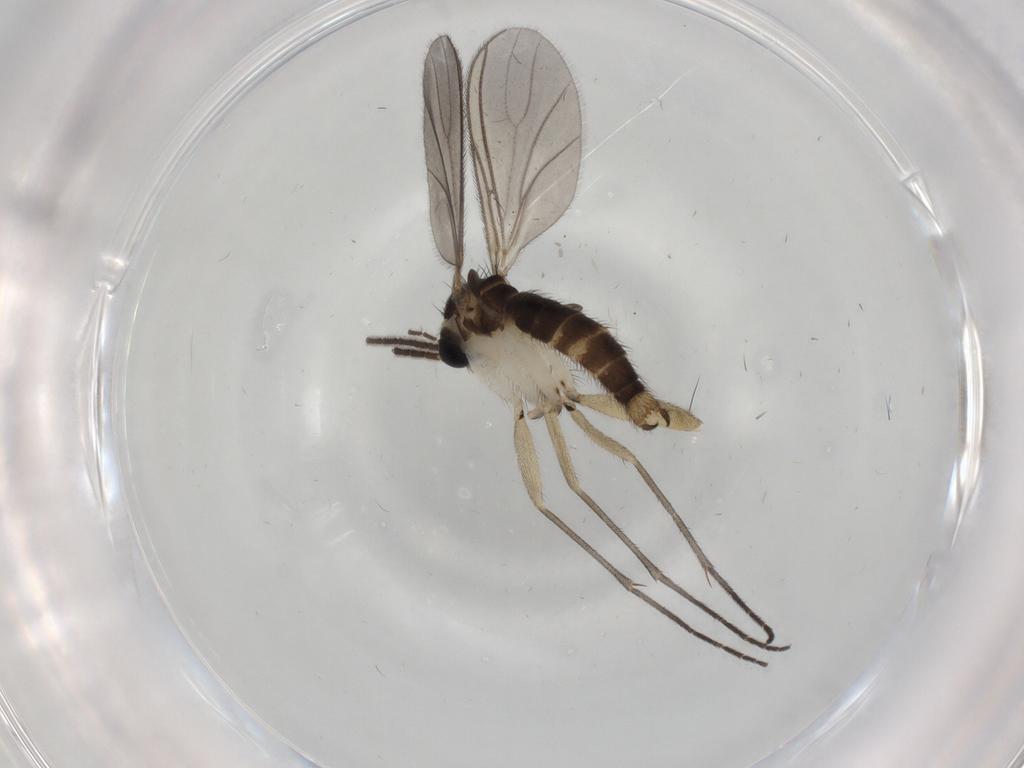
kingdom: Animalia
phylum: Arthropoda
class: Insecta
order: Diptera
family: Sciaridae
